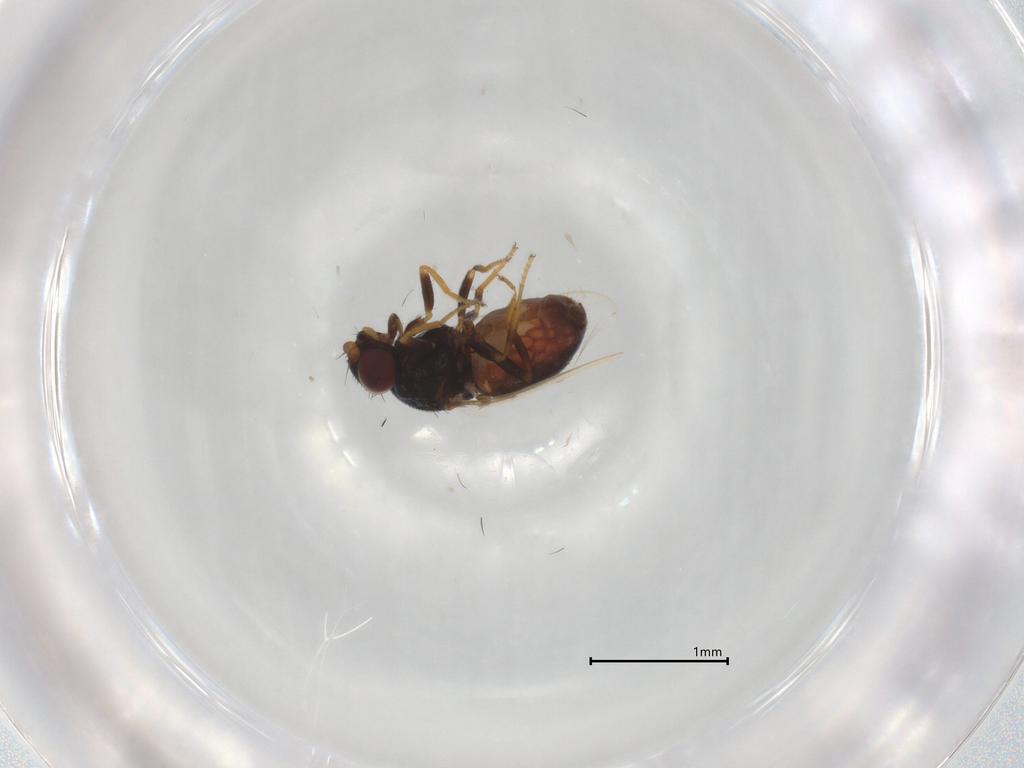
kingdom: Animalia
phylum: Arthropoda
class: Insecta
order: Diptera
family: Chloropidae
